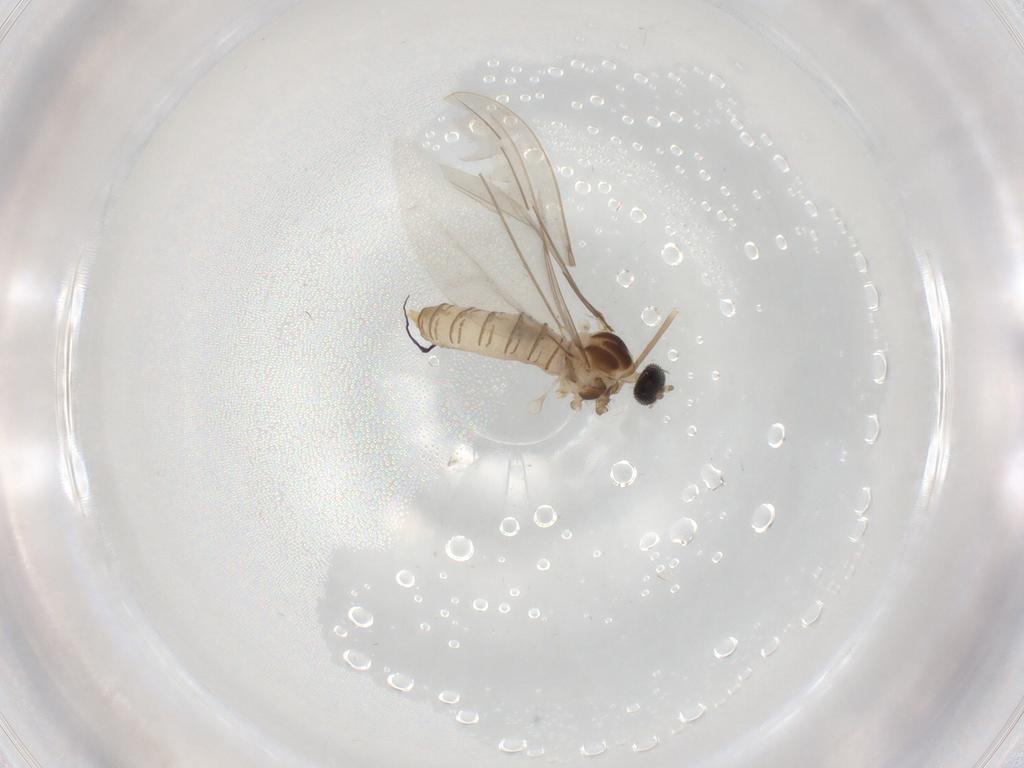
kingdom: Animalia
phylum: Arthropoda
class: Insecta
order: Diptera
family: Cecidomyiidae
